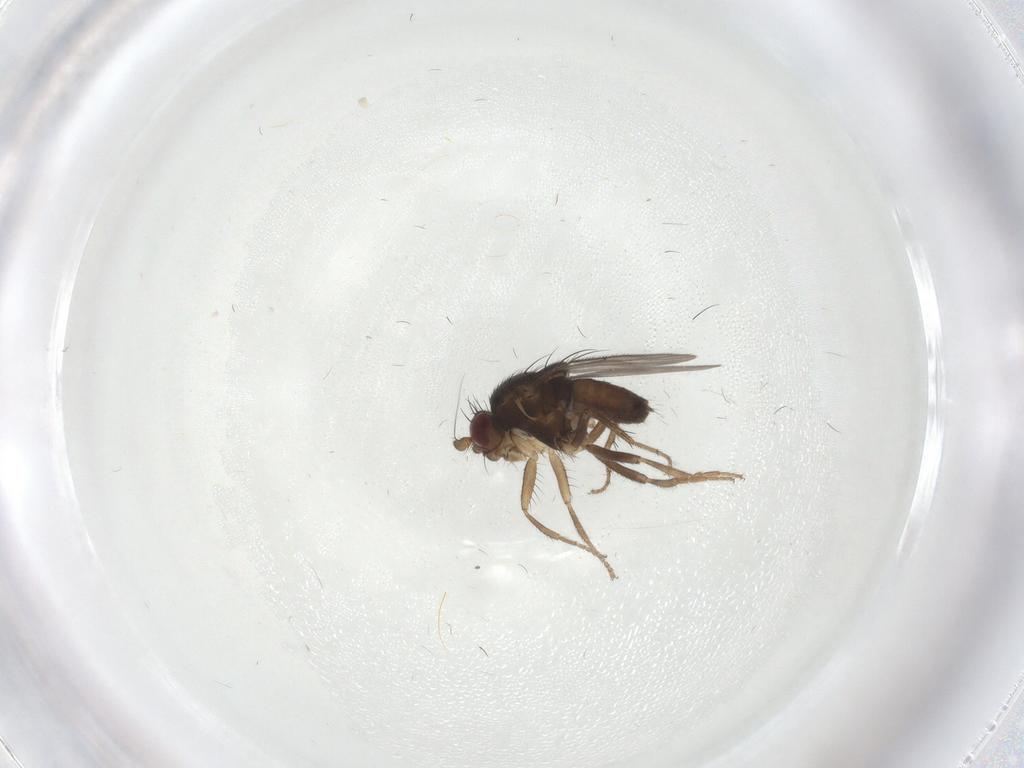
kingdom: Animalia
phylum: Arthropoda
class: Insecta
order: Diptera
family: Sphaeroceridae
